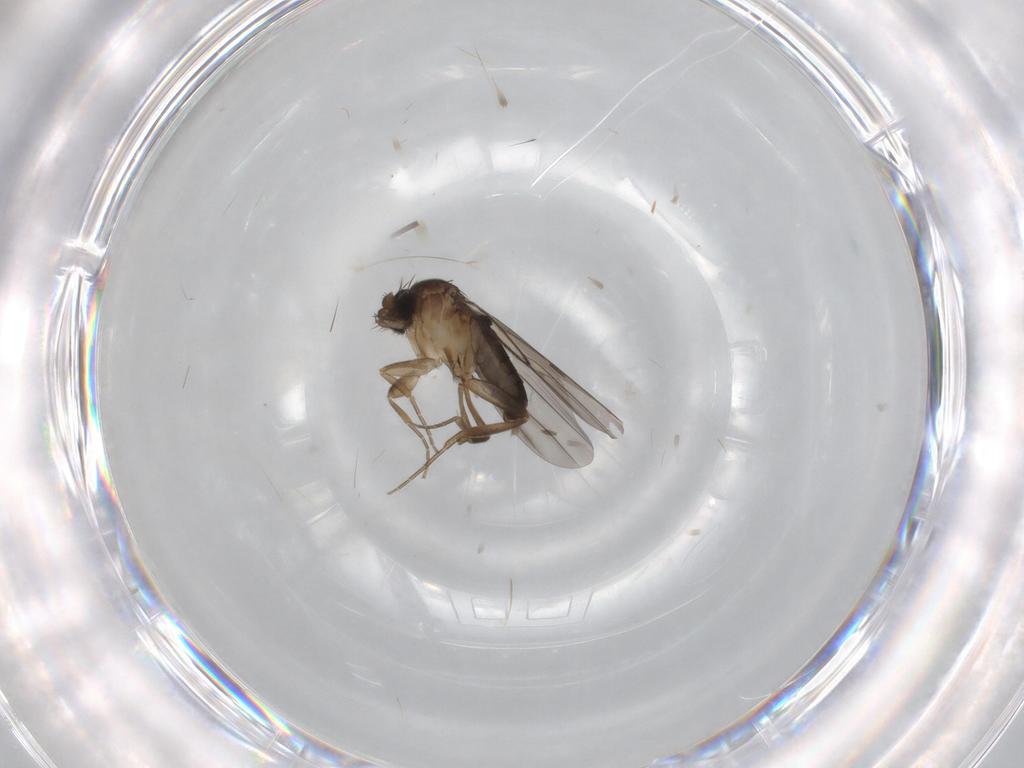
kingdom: Animalia
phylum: Arthropoda
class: Insecta
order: Diptera
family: Phoridae
